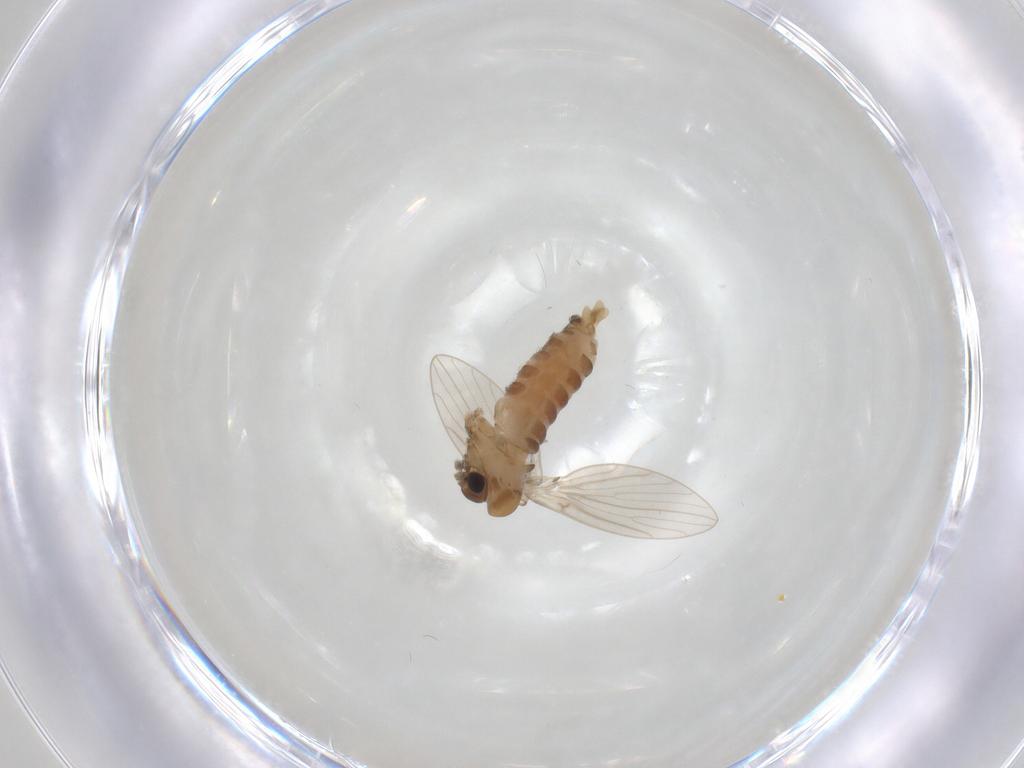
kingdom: Animalia
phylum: Arthropoda
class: Insecta
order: Diptera
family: Psychodidae
